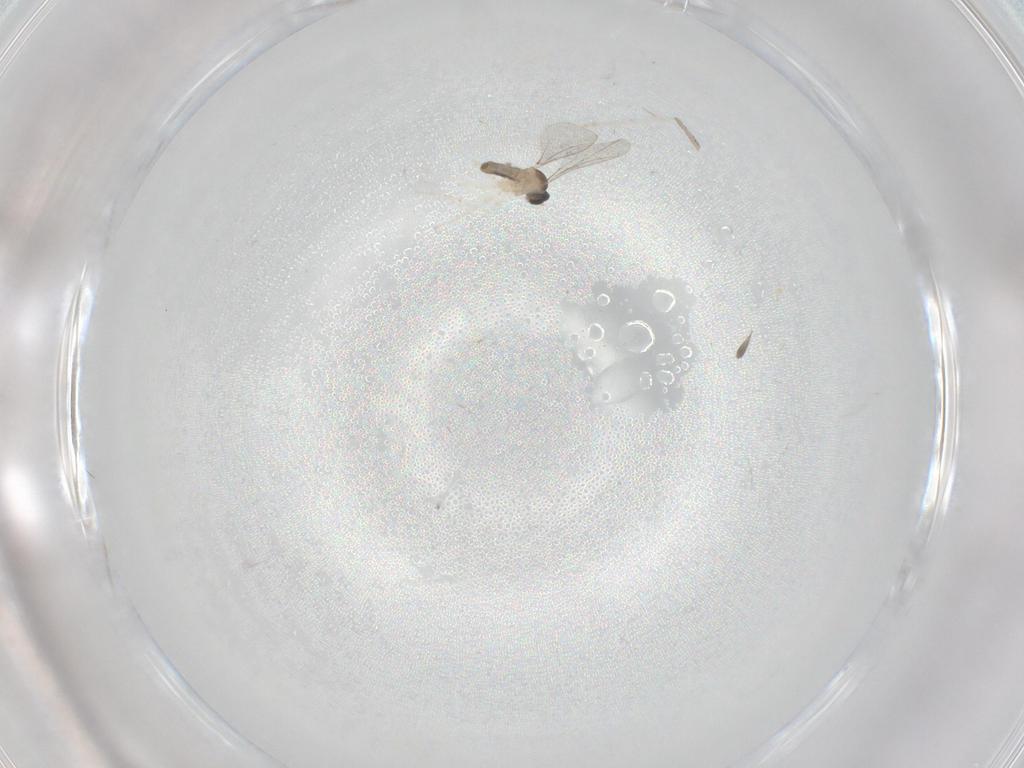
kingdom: Animalia
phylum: Arthropoda
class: Insecta
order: Diptera
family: Cecidomyiidae
